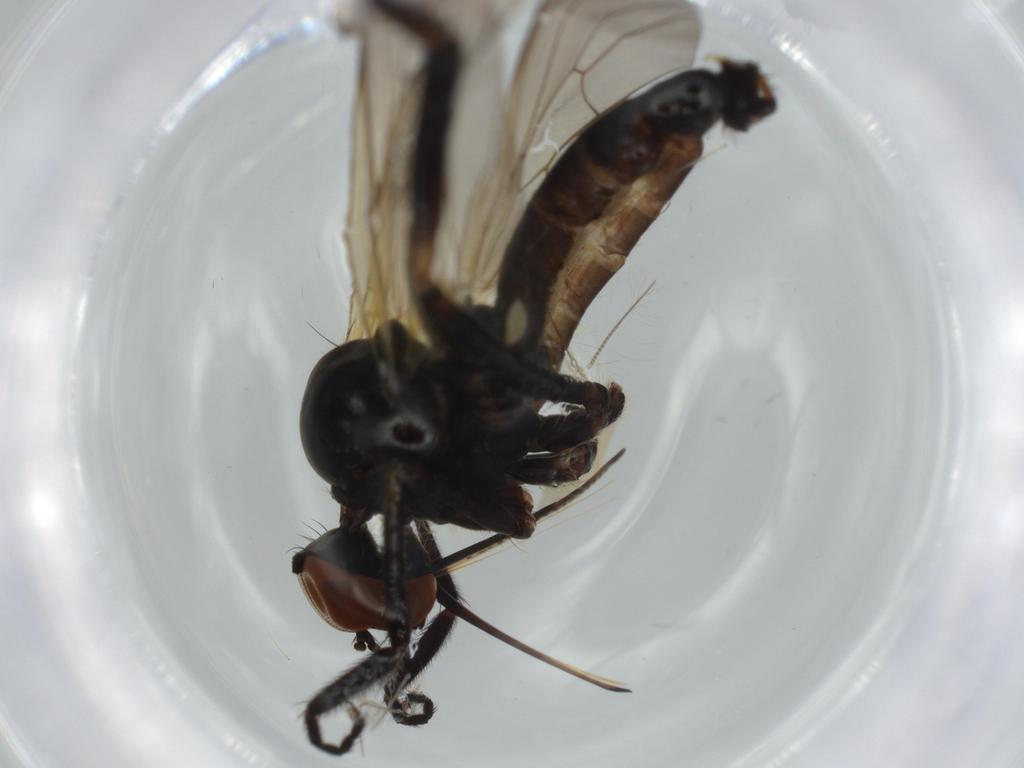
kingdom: Animalia
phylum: Arthropoda
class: Insecta
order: Diptera
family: Empididae
